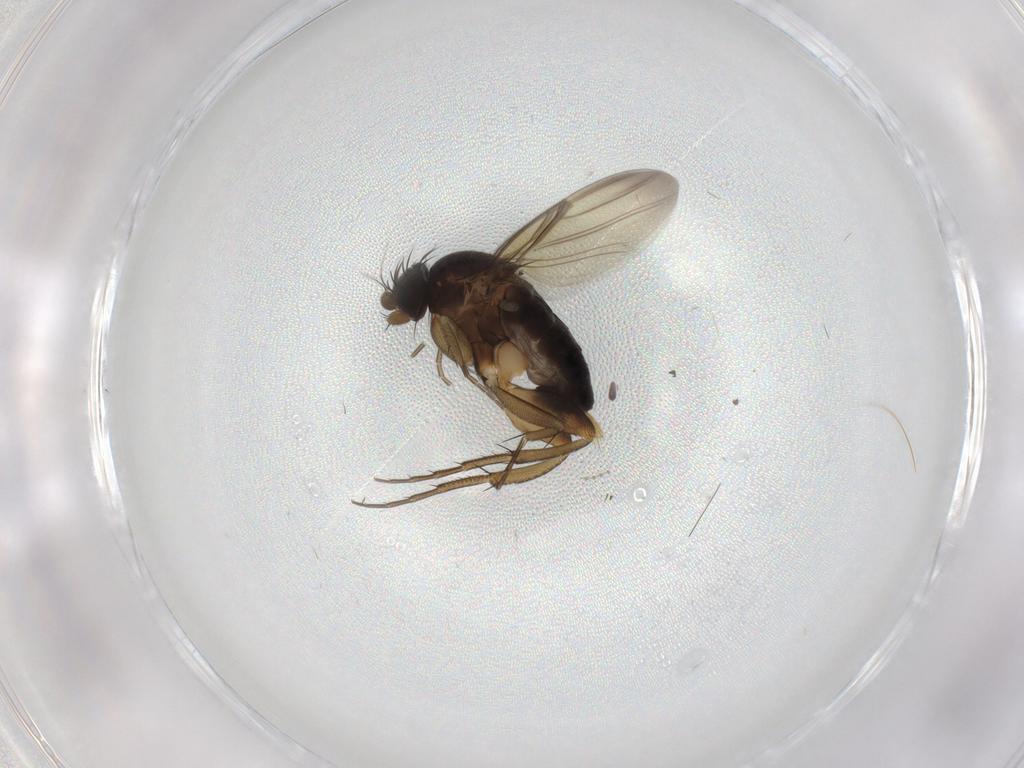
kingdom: Animalia
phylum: Arthropoda
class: Insecta
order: Diptera
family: Phoridae
